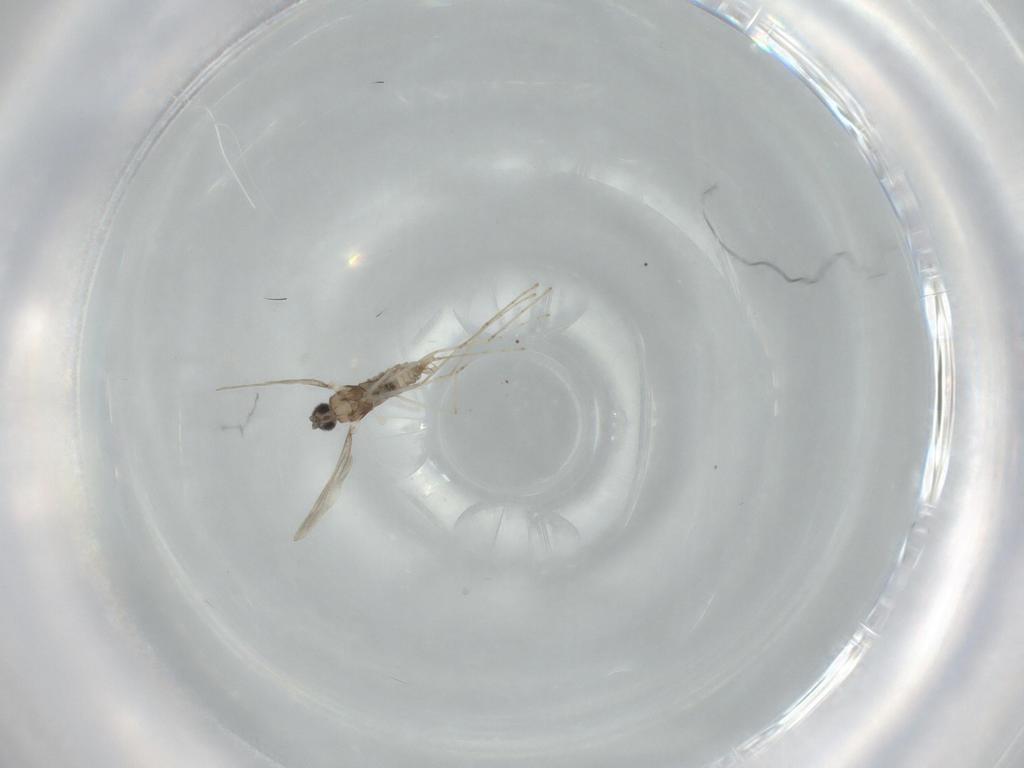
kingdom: Animalia
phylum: Arthropoda
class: Insecta
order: Diptera
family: Cecidomyiidae
